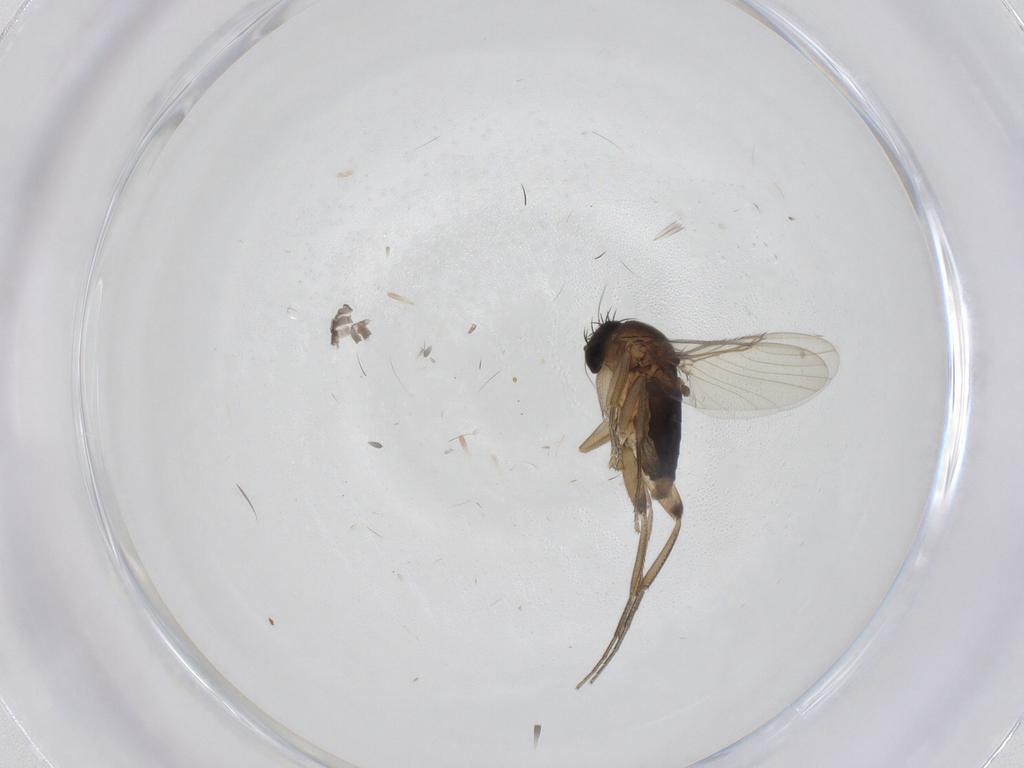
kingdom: Animalia
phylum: Arthropoda
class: Insecta
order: Diptera
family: Phoridae
